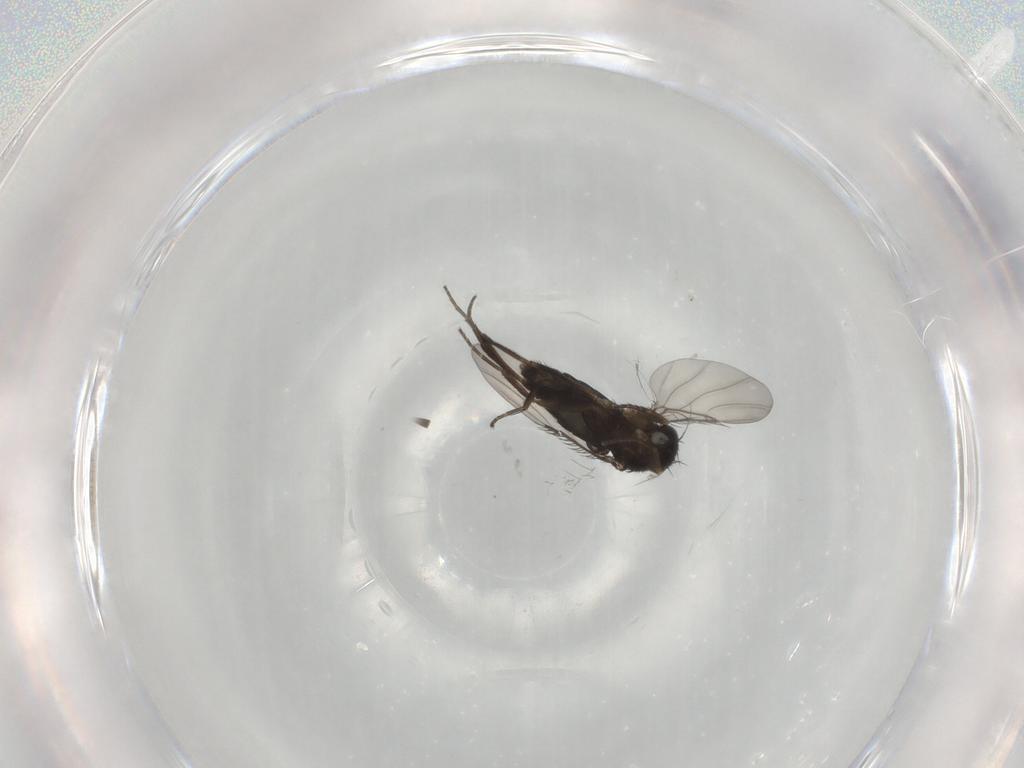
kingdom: Animalia
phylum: Arthropoda
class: Insecta
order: Diptera
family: Limoniidae
